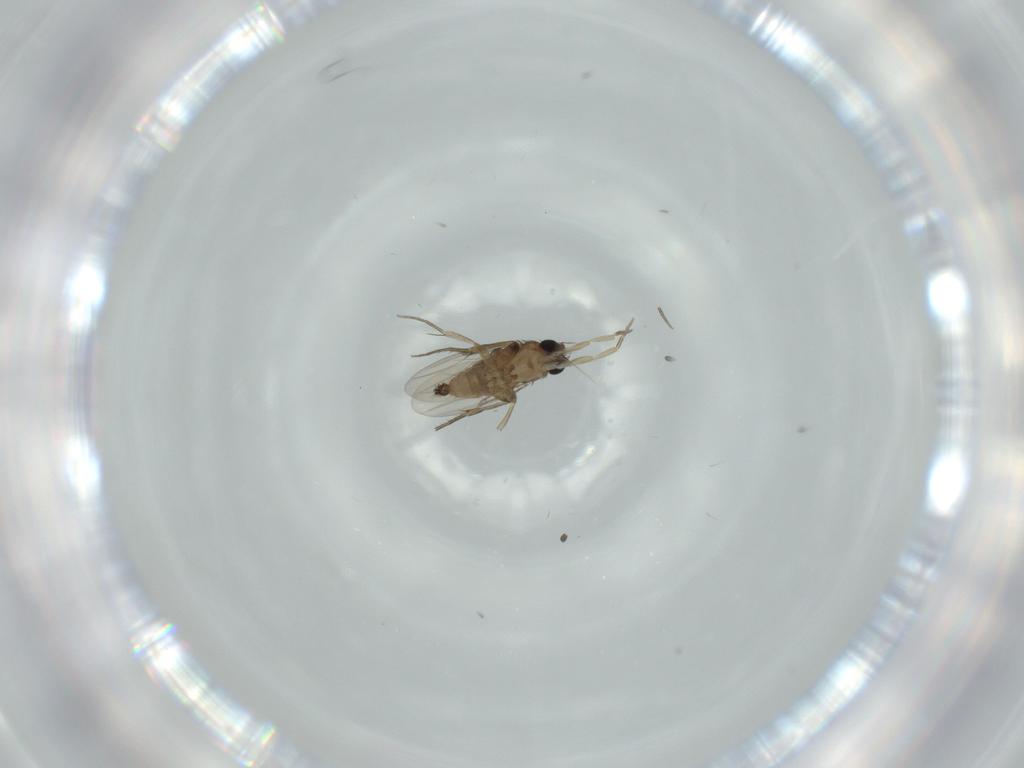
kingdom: Animalia
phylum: Arthropoda
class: Insecta
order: Diptera
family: Phoridae
